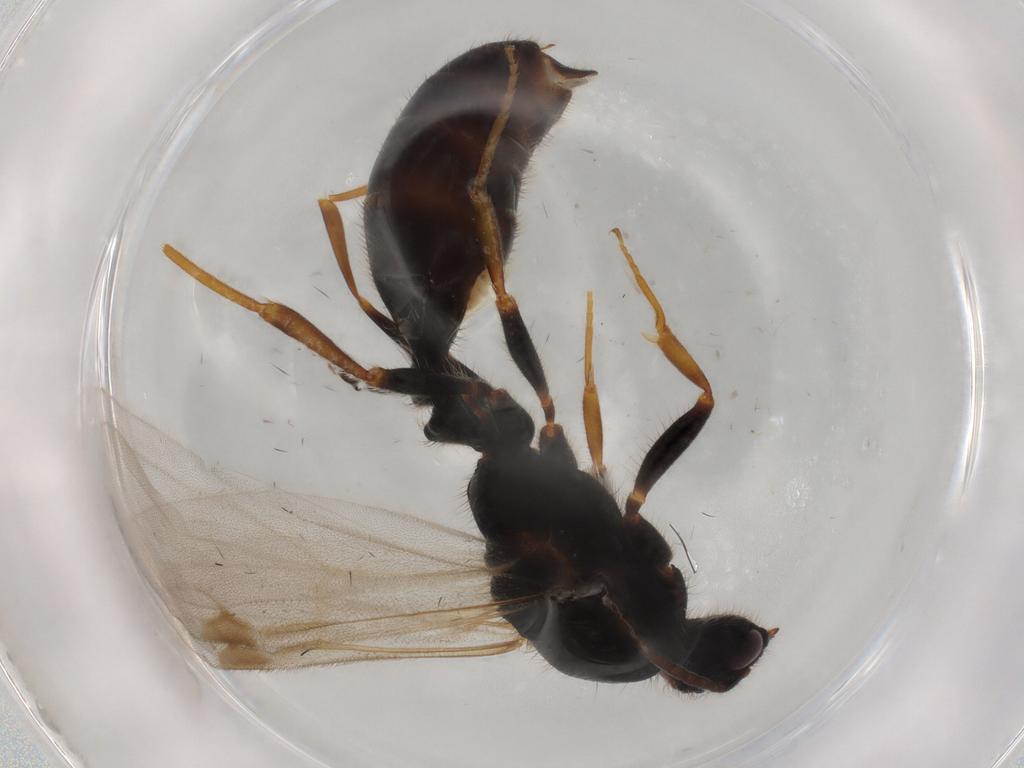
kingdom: Animalia
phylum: Arthropoda
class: Insecta
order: Hymenoptera
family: Formicidae
